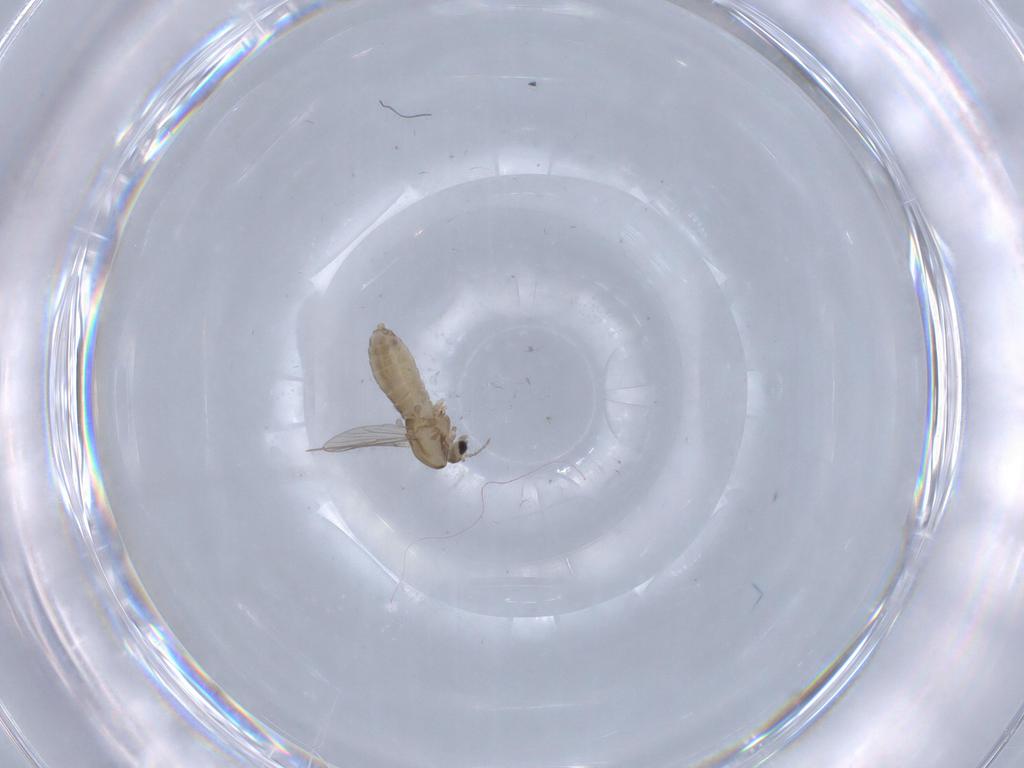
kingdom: Animalia
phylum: Arthropoda
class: Insecta
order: Diptera
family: Chironomidae
